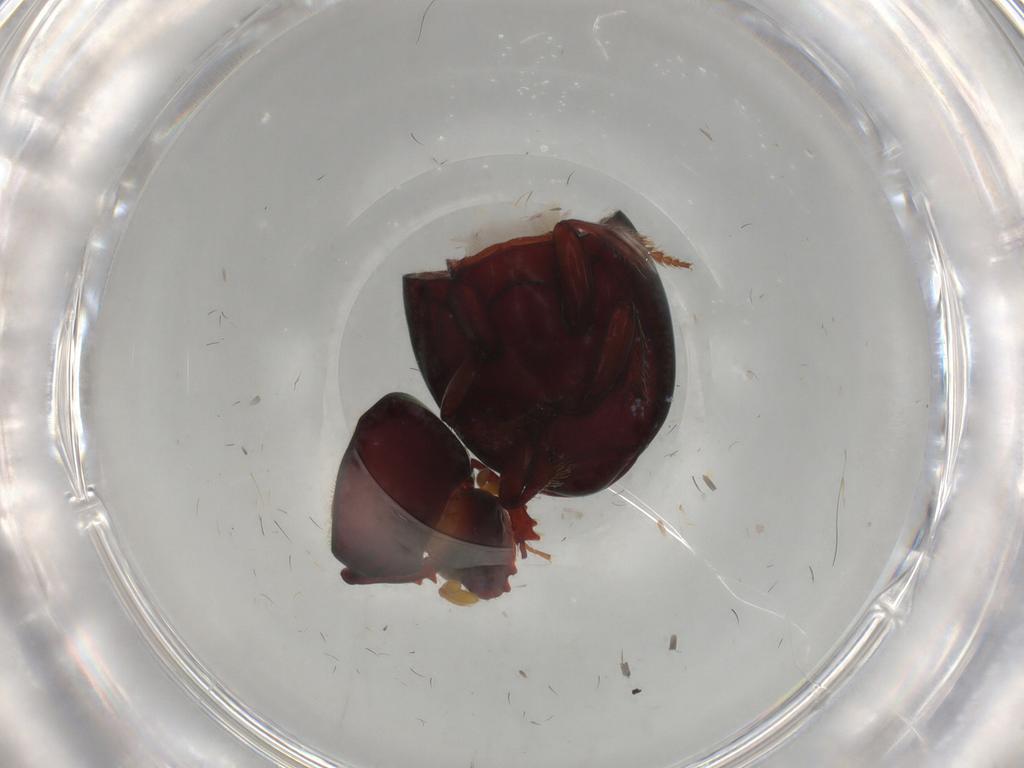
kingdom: Animalia
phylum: Arthropoda
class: Insecta
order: Coleoptera
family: Scarabaeidae
